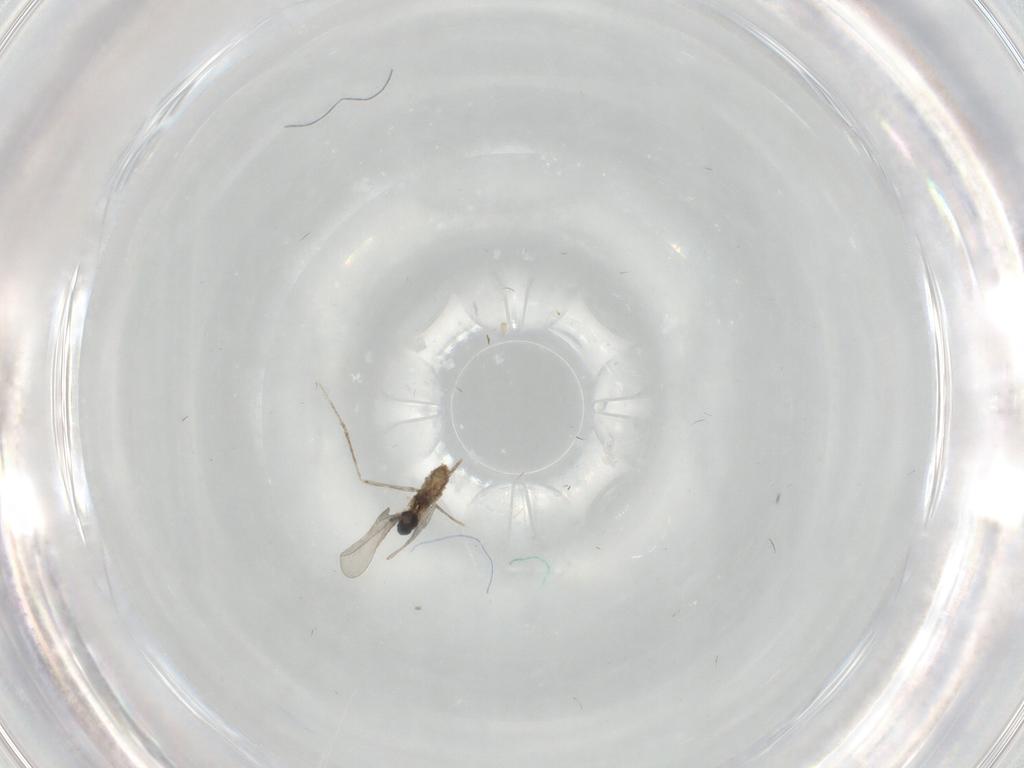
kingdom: Animalia
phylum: Arthropoda
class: Insecta
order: Diptera
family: Cecidomyiidae
